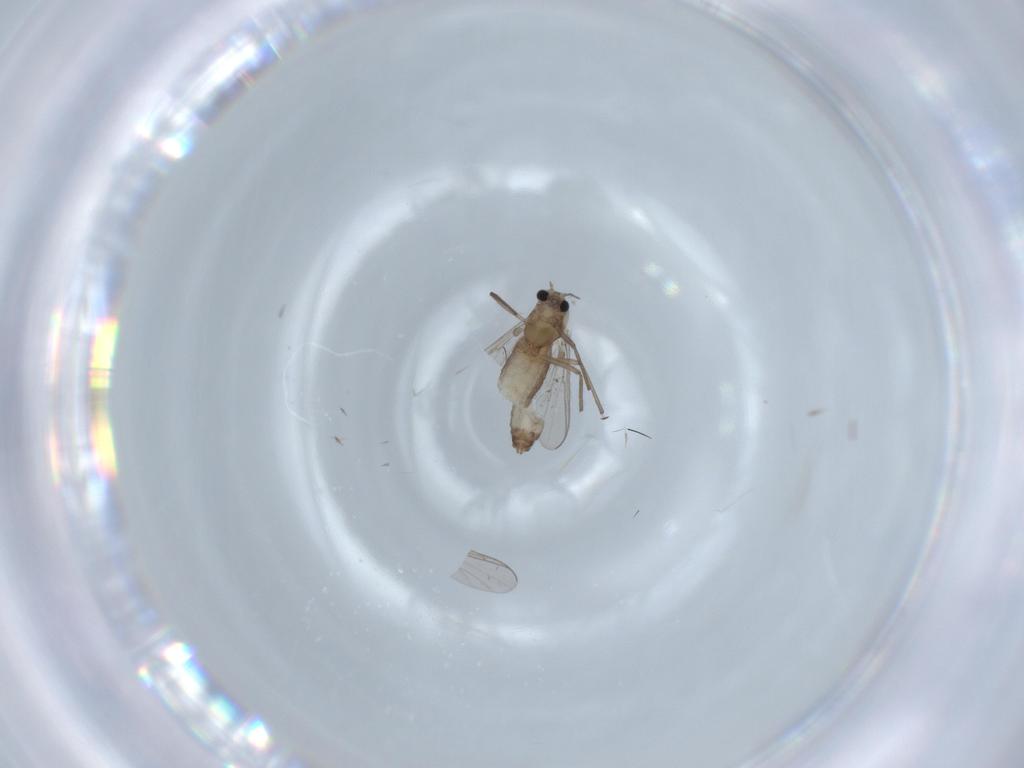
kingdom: Animalia
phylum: Arthropoda
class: Insecta
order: Diptera
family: Chironomidae
